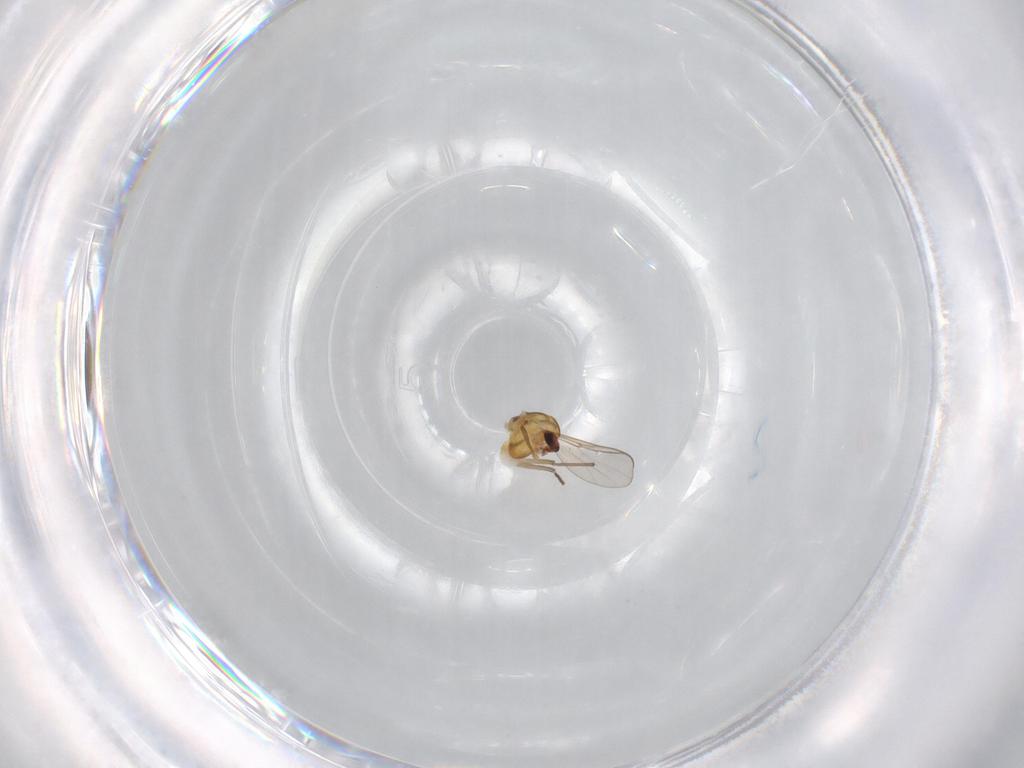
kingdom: Animalia
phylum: Arthropoda
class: Insecta
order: Diptera
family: Chironomidae
